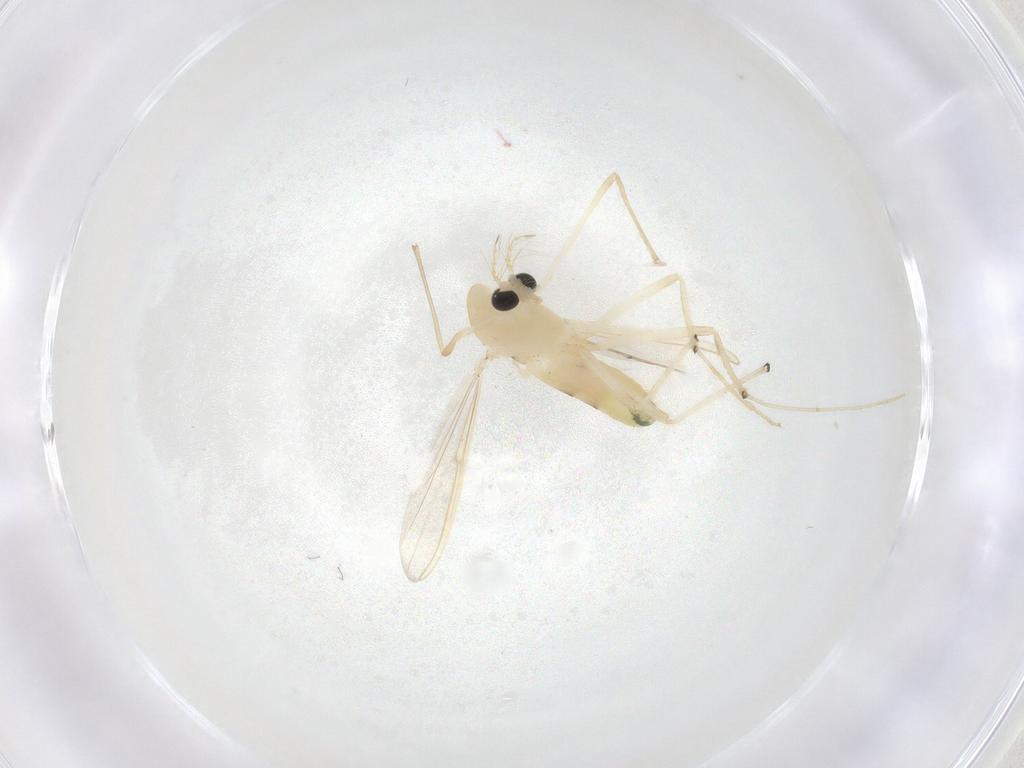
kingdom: Animalia
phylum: Arthropoda
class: Insecta
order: Diptera
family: Chironomidae
